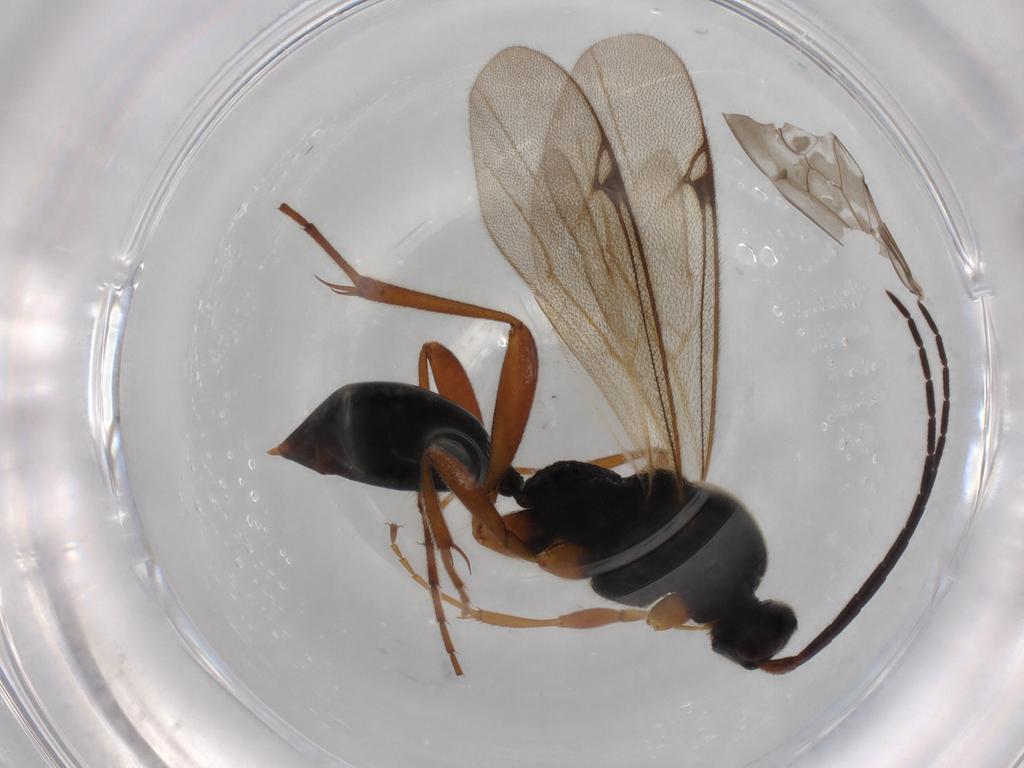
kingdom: Animalia
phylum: Arthropoda
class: Insecta
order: Hymenoptera
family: Proctotrupidae
